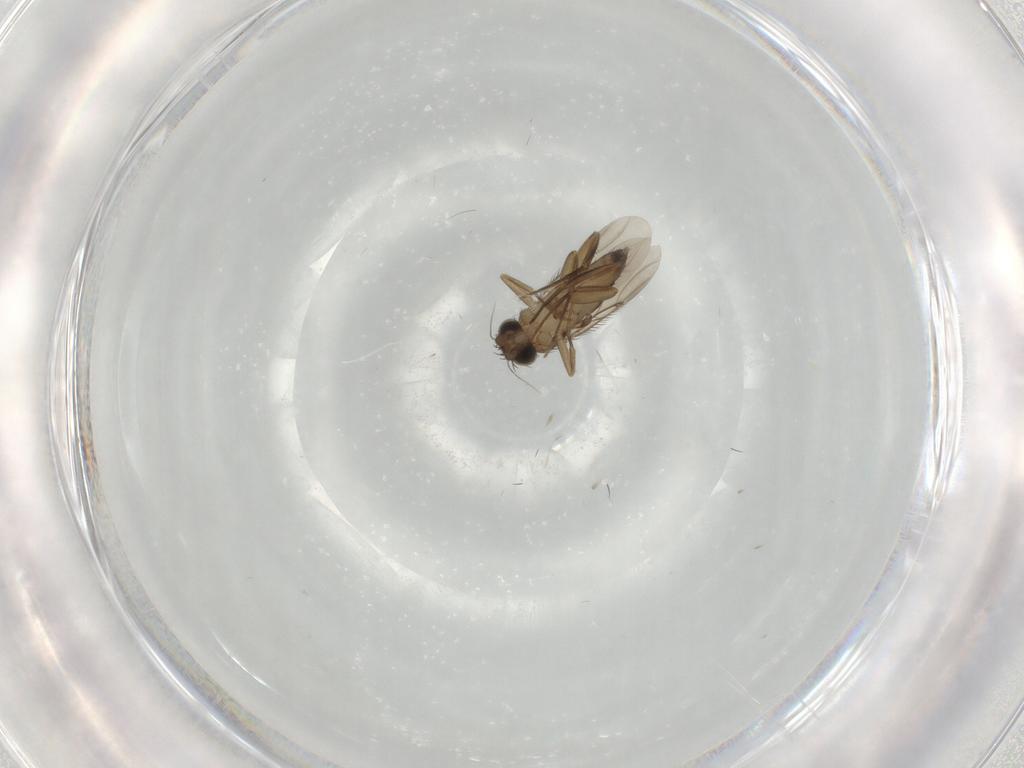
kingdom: Animalia
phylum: Arthropoda
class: Insecta
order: Diptera
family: Phoridae
